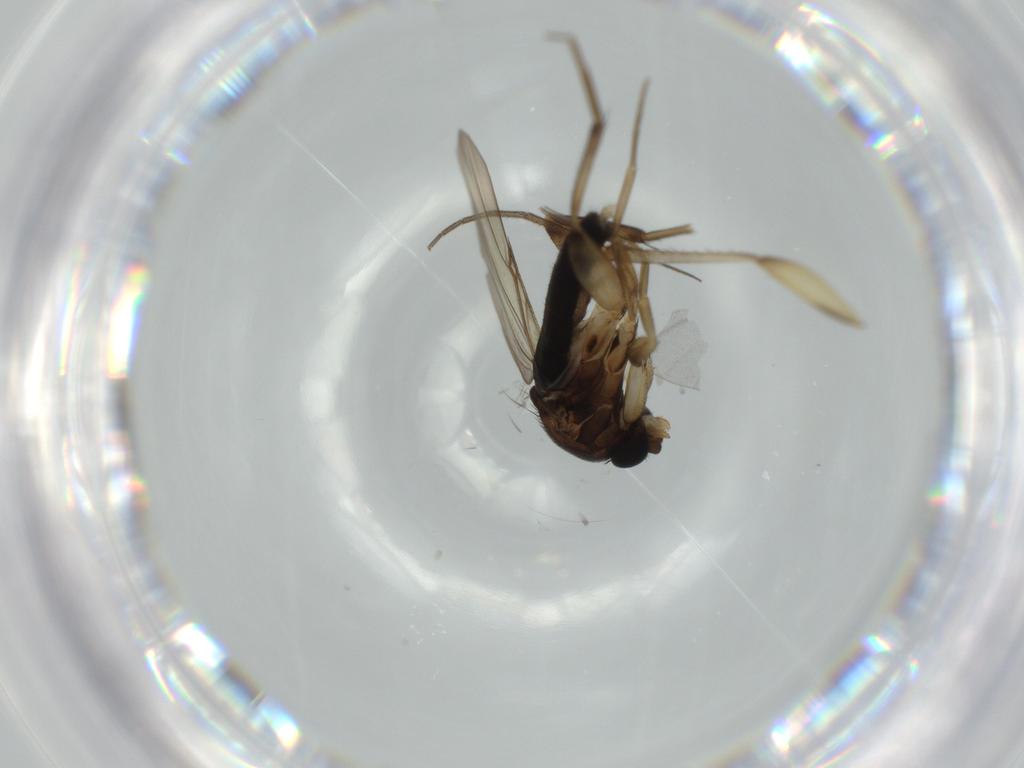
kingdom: Animalia
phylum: Arthropoda
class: Insecta
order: Diptera
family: Phoridae
